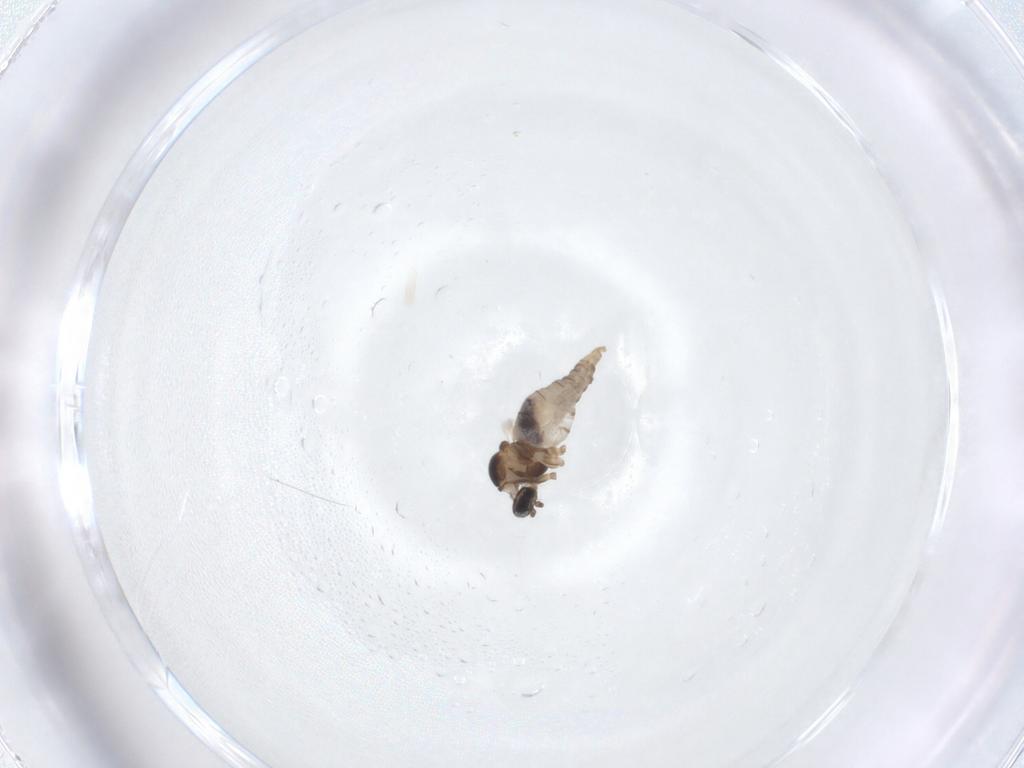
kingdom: Animalia
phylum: Arthropoda
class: Insecta
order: Diptera
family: Cecidomyiidae
